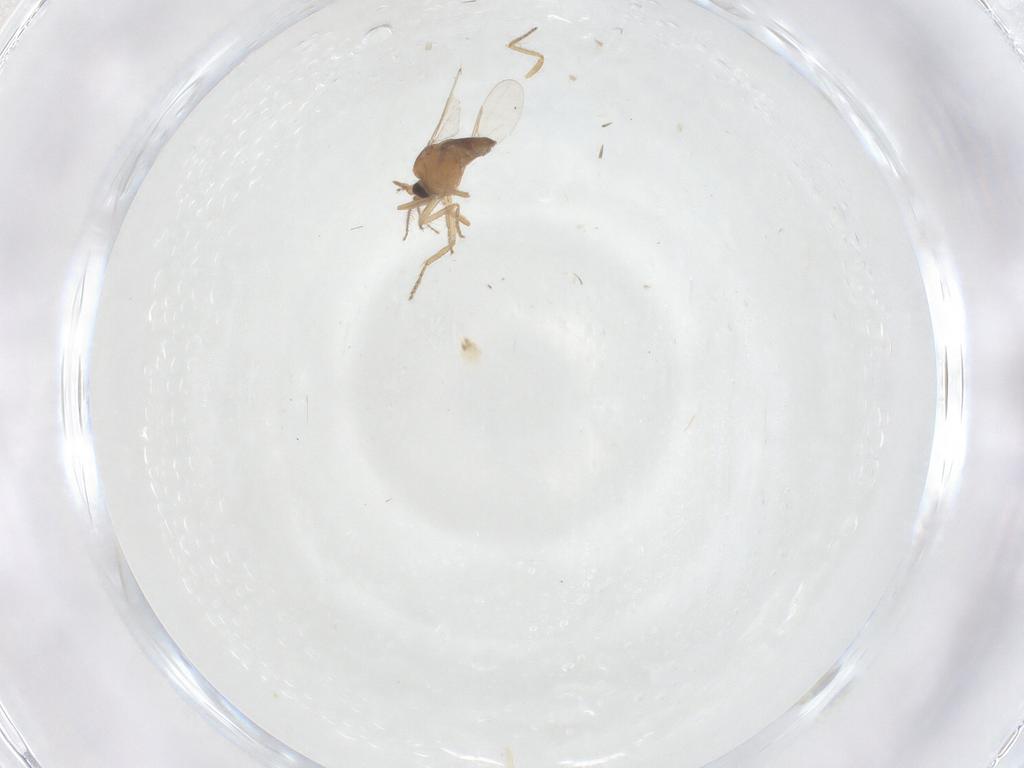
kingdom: Animalia
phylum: Arthropoda
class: Insecta
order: Diptera
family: Ceratopogonidae
